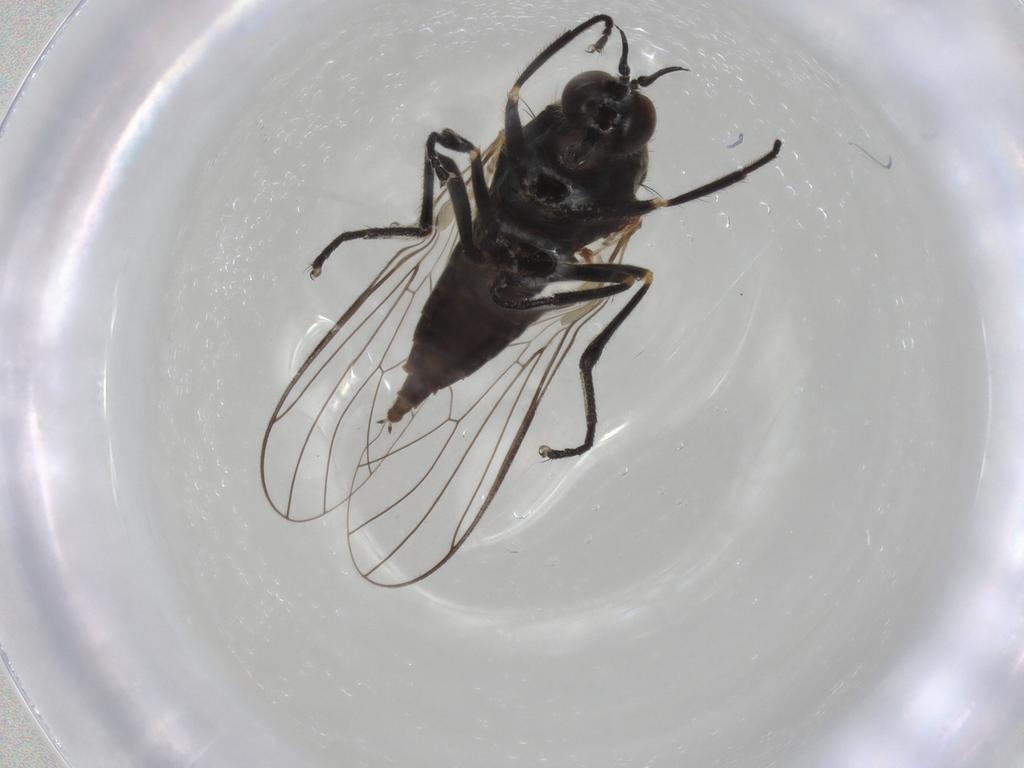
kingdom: Animalia
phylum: Arthropoda
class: Insecta
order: Diptera
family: Empididae
